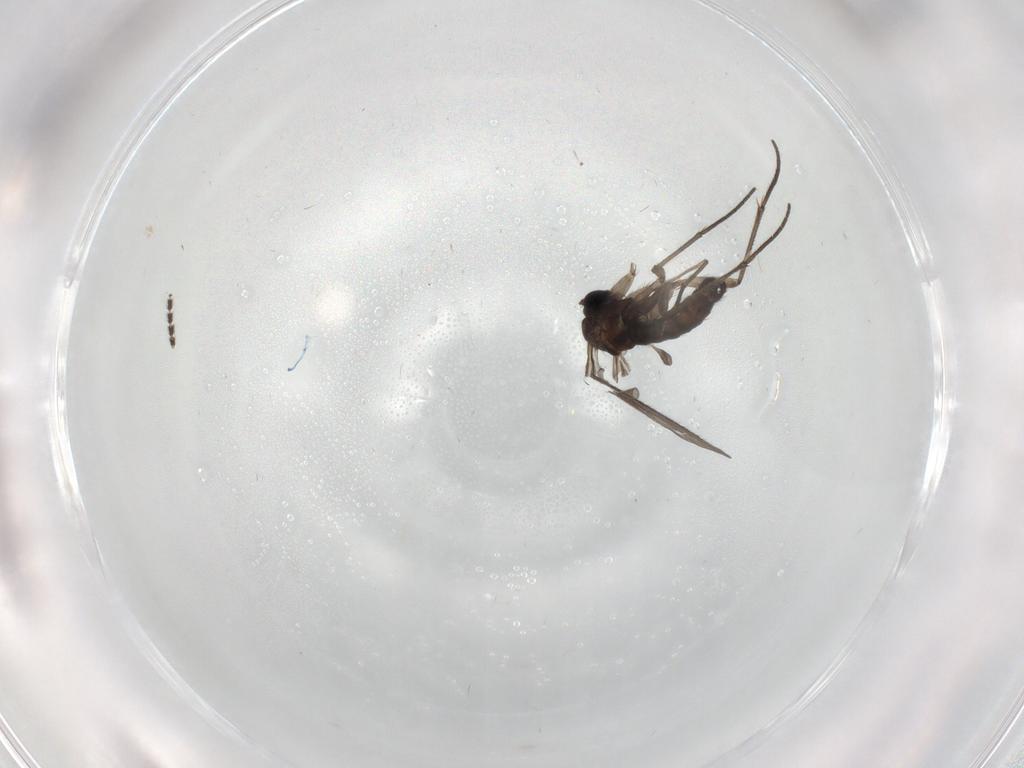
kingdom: Animalia
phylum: Arthropoda
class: Insecta
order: Diptera
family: Sciaridae
